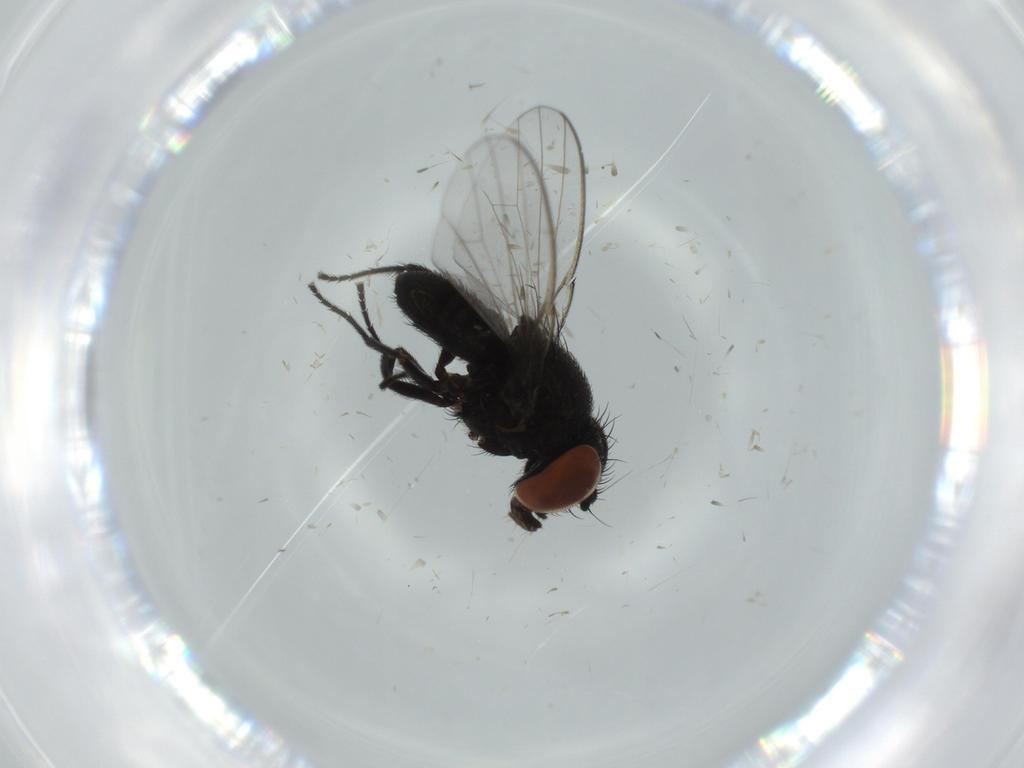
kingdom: Animalia
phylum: Arthropoda
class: Insecta
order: Diptera
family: Milichiidae
